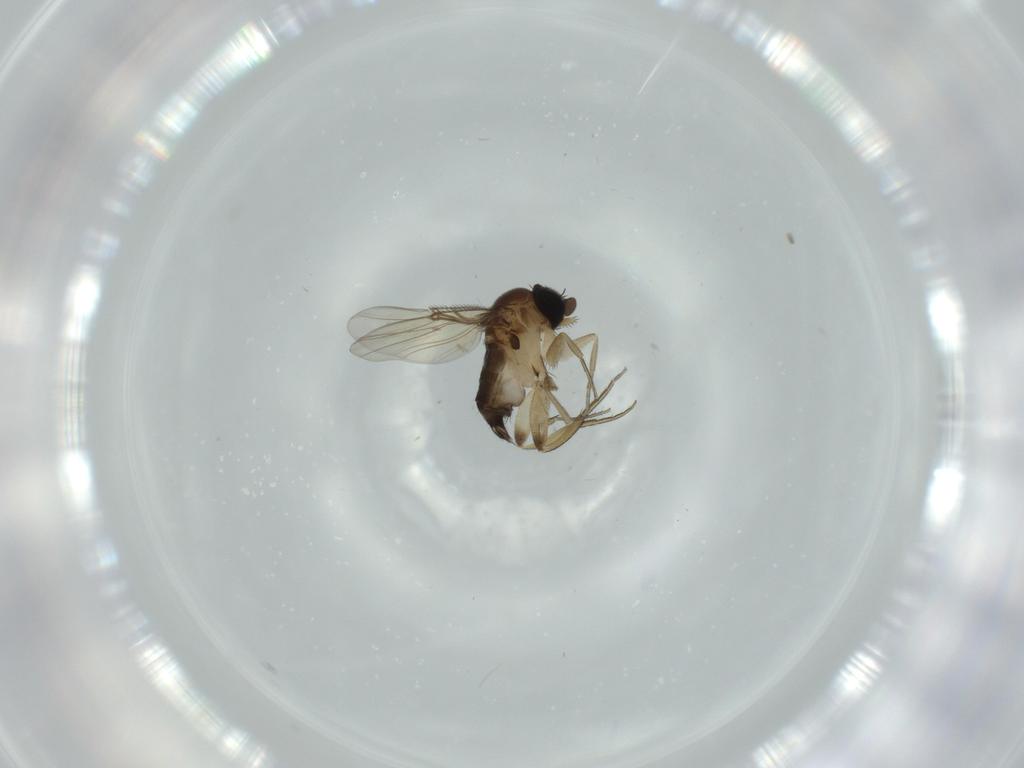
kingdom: Animalia
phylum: Arthropoda
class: Insecta
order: Diptera
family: Phoridae
